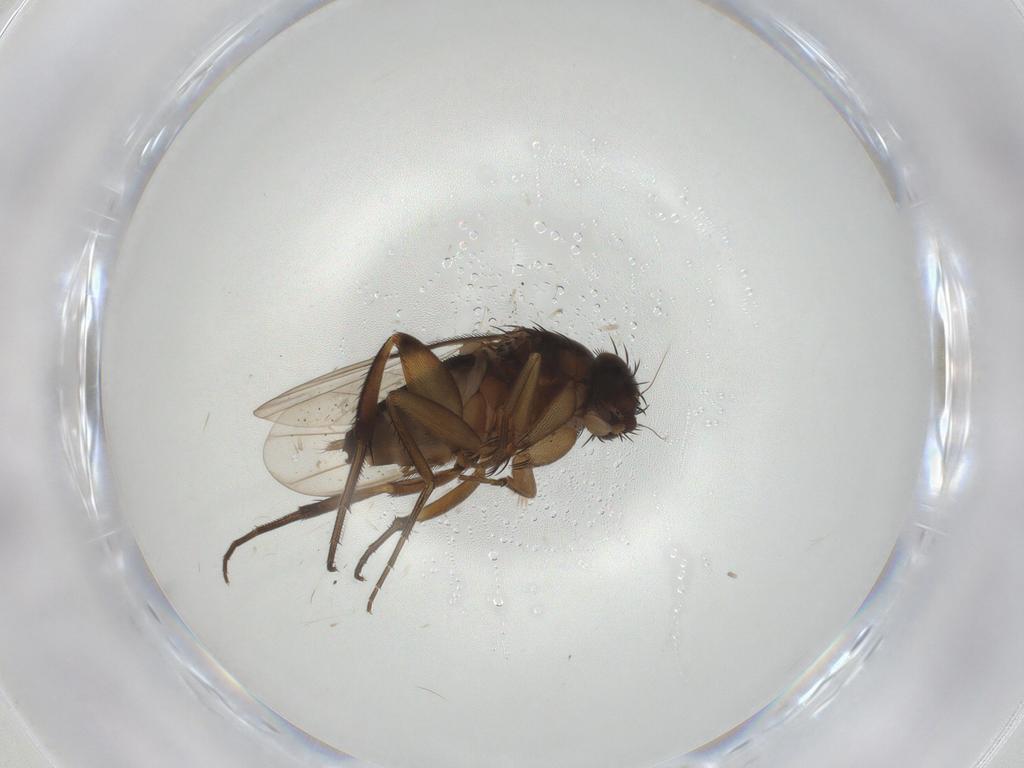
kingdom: Animalia
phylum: Arthropoda
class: Insecta
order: Diptera
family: Phoridae
